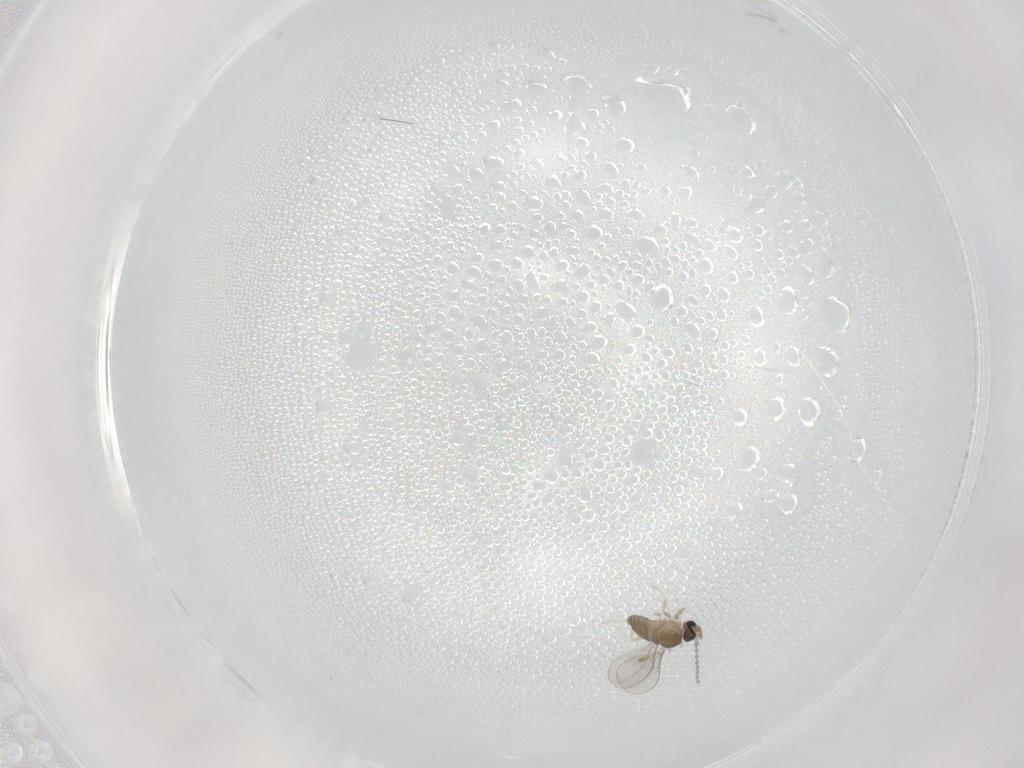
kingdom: Animalia
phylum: Arthropoda
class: Insecta
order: Diptera
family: Cecidomyiidae
